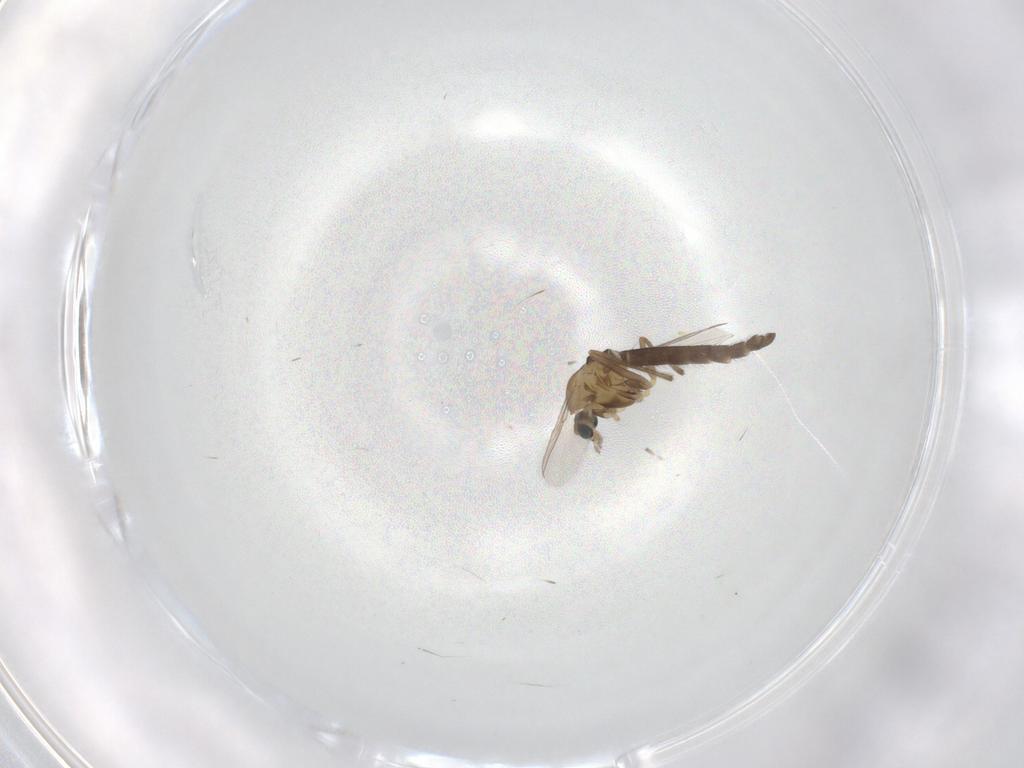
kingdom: Animalia
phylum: Arthropoda
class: Insecta
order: Diptera
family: Chironomidae
